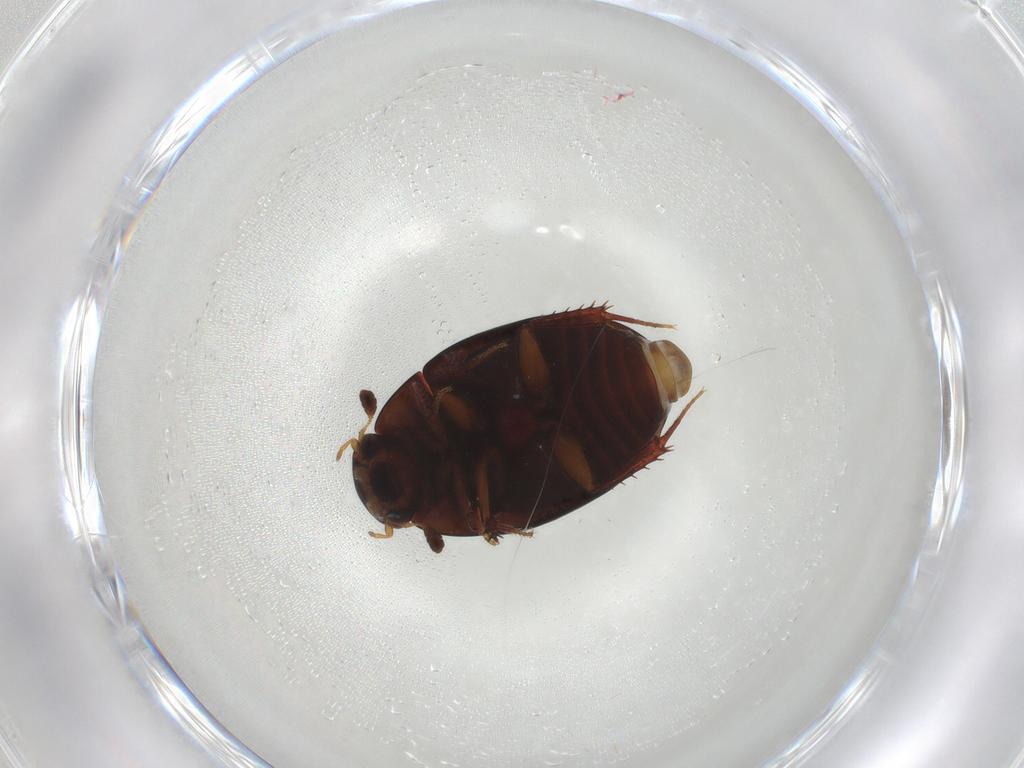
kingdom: Animalia
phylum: Arthropoda
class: Insecta
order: Coleoptera
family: Hydrophilidae
